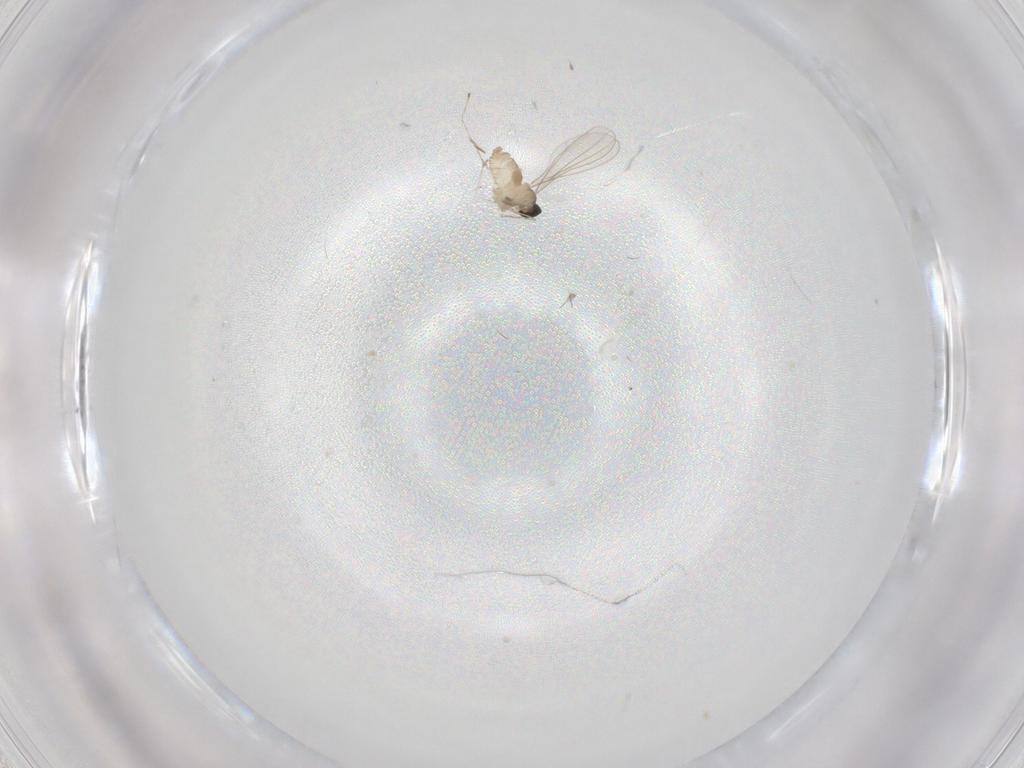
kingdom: Animalia
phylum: Arthropoda
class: Insecta
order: Diptera
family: Cecidomyiidae
